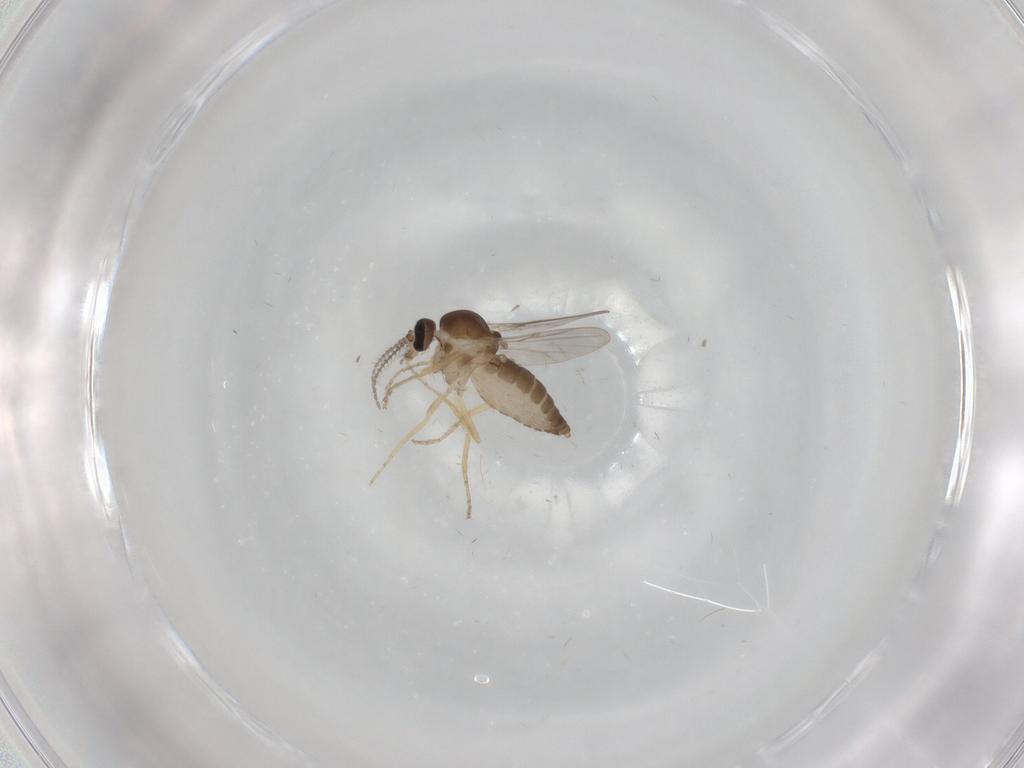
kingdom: Animalia
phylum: Arthropoda
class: Insecta
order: Diptera
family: Ceratopogonidae
